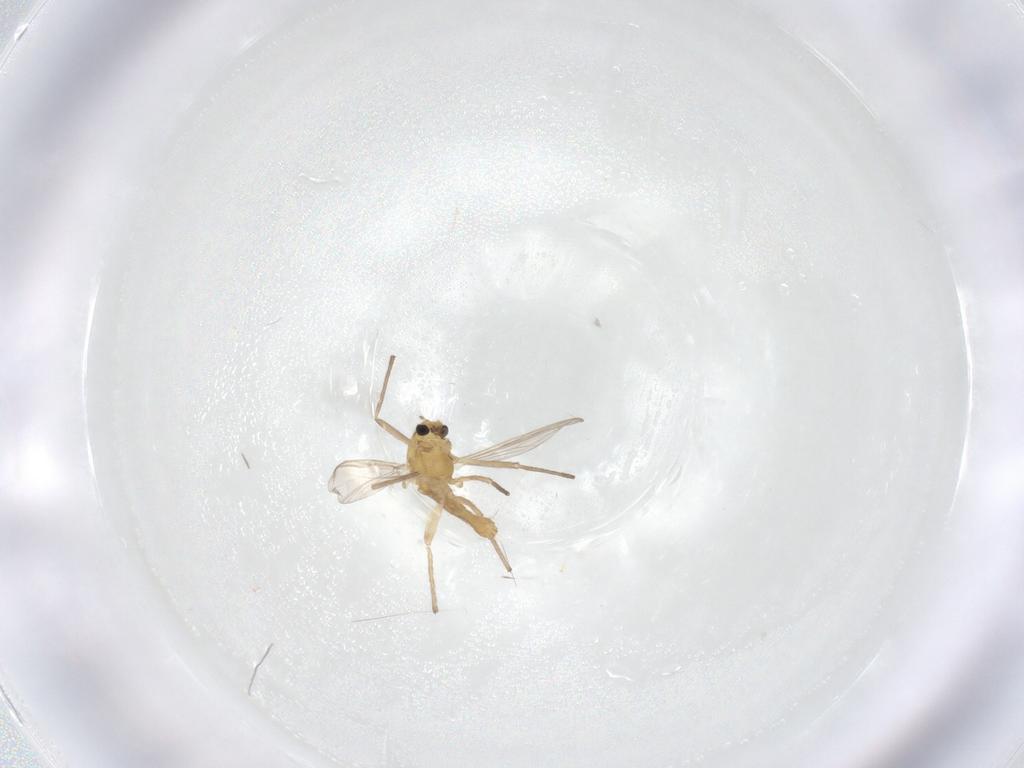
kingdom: Animalia
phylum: Arthropoda
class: Insecta
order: Diptera
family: Chironomidae
